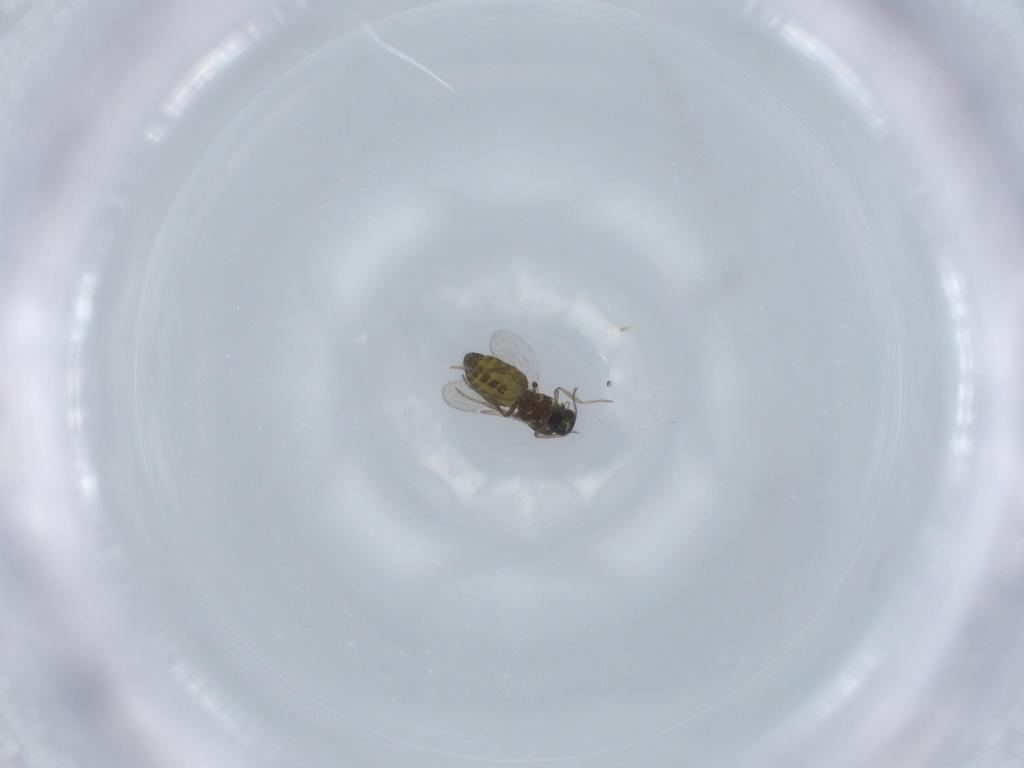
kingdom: Animalia
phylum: Arthropoda
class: Insecta
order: Diptera
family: Ceratopogonidae
